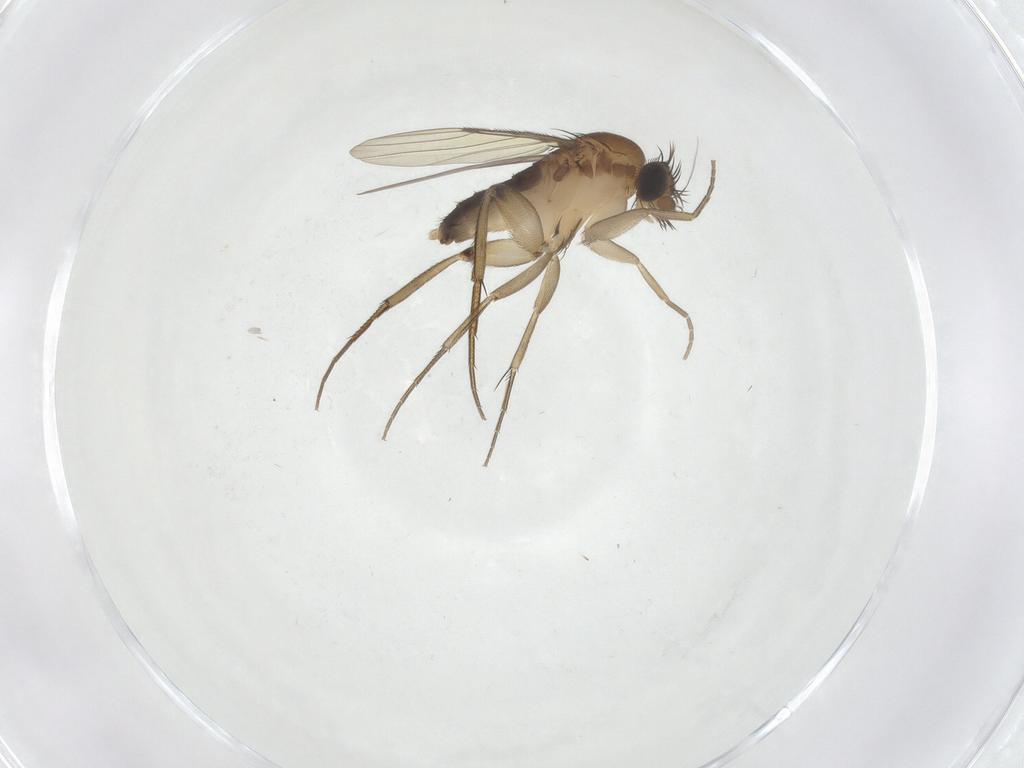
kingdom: Animalia
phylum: Arthropoda
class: Insecta
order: Diptera
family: Phoridae
